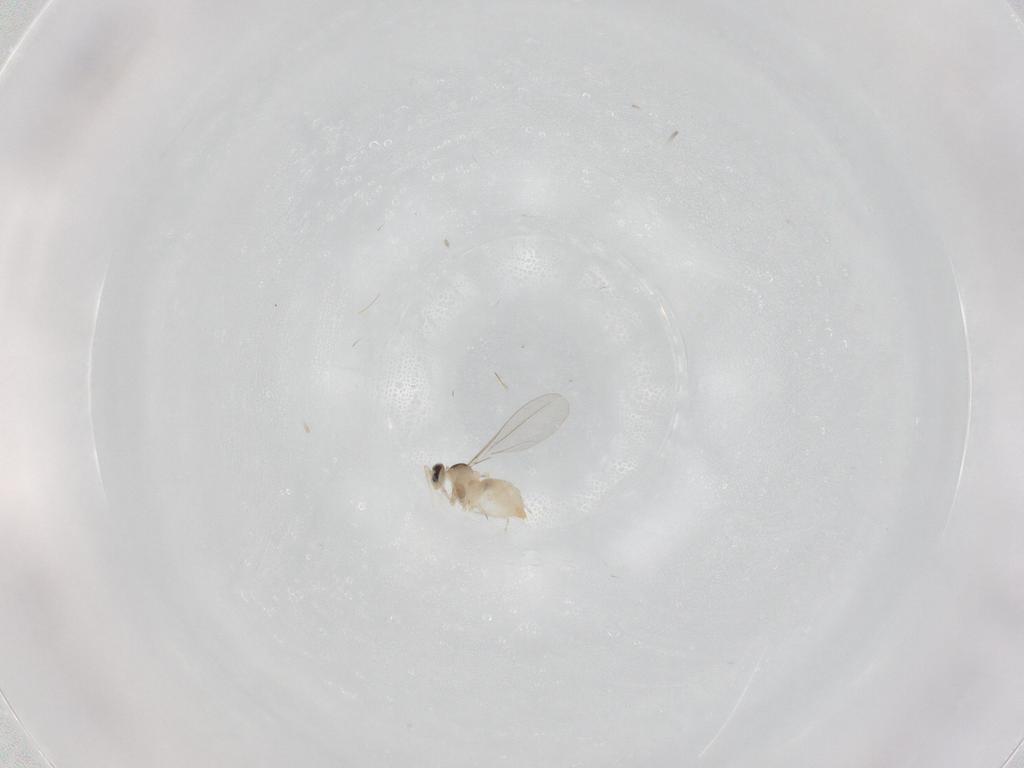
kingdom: Animalia
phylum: Arthropoda
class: Insecta
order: Diptera
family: Cecidomyiidae
